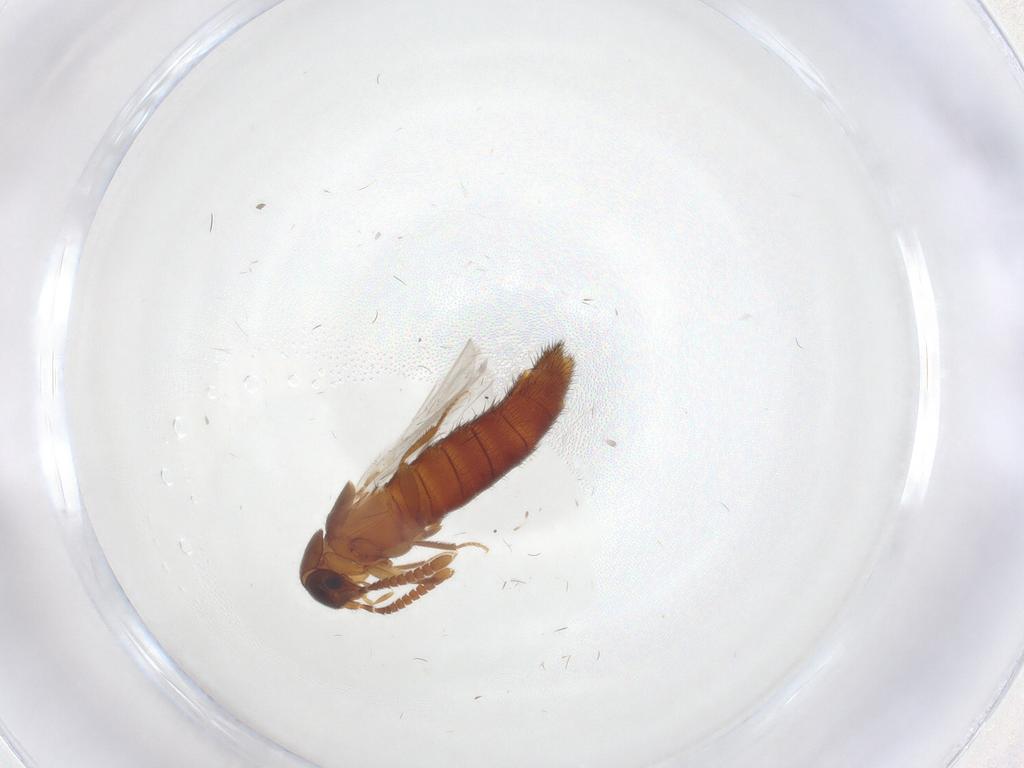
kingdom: Animalia
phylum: Arthropoda
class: Insecta
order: Coleoptera
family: Staphylinidae
